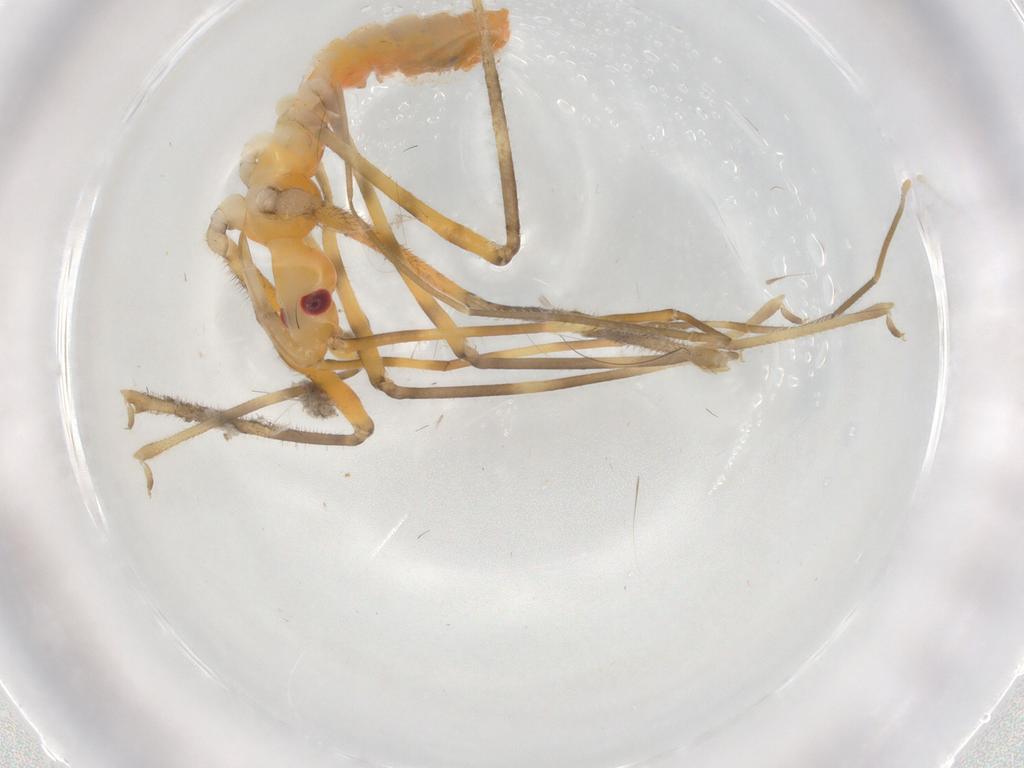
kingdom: Animalia
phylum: Arthropoda
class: Insecta
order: Hemiptera
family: Reduviidae
